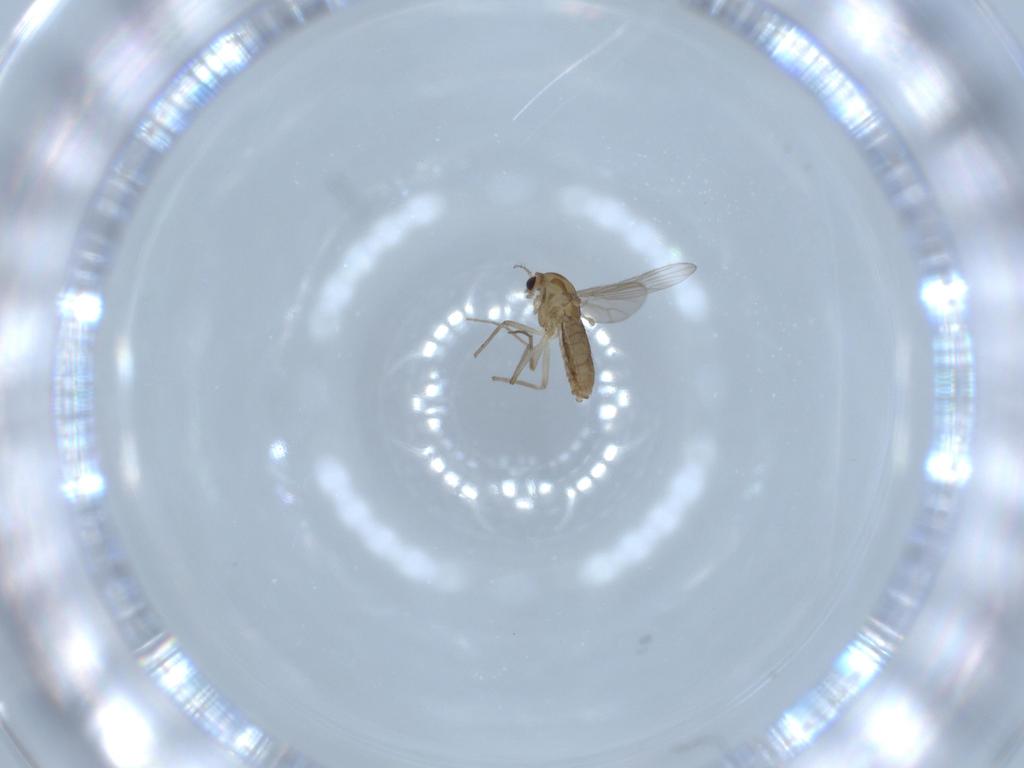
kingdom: Animalia
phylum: Arthropoda
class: Insecta
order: Diptera
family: Chironomidae
